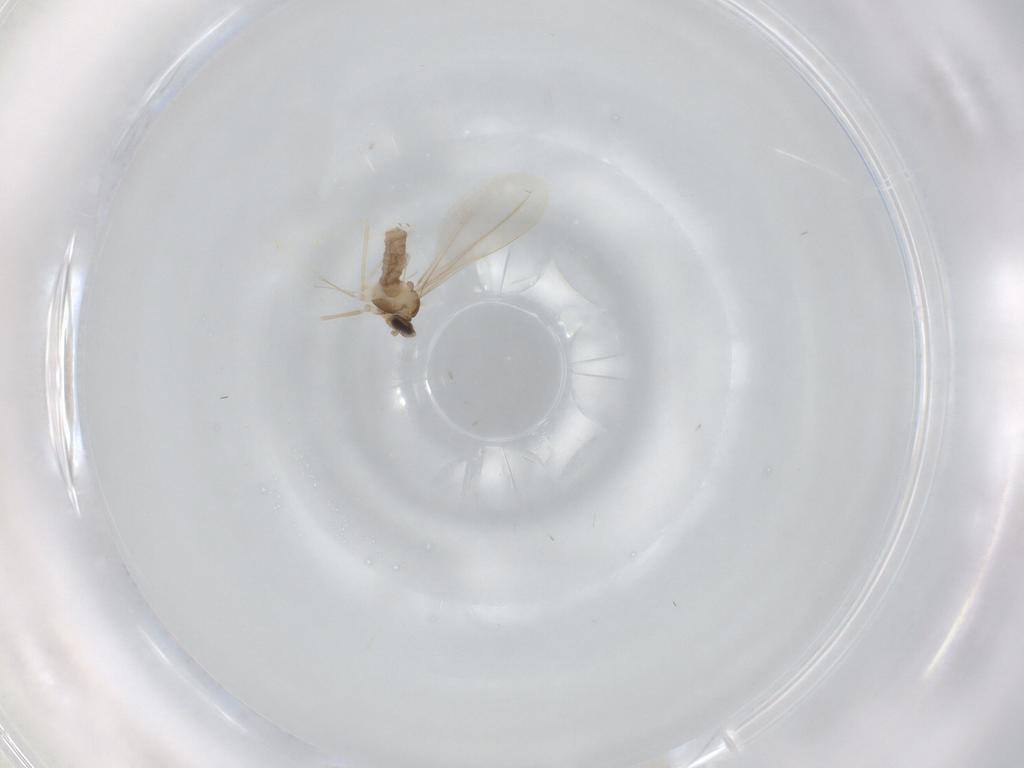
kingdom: Animalia
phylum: Arthropoda
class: Insecta
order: Diptera
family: Cecidomyiidae
